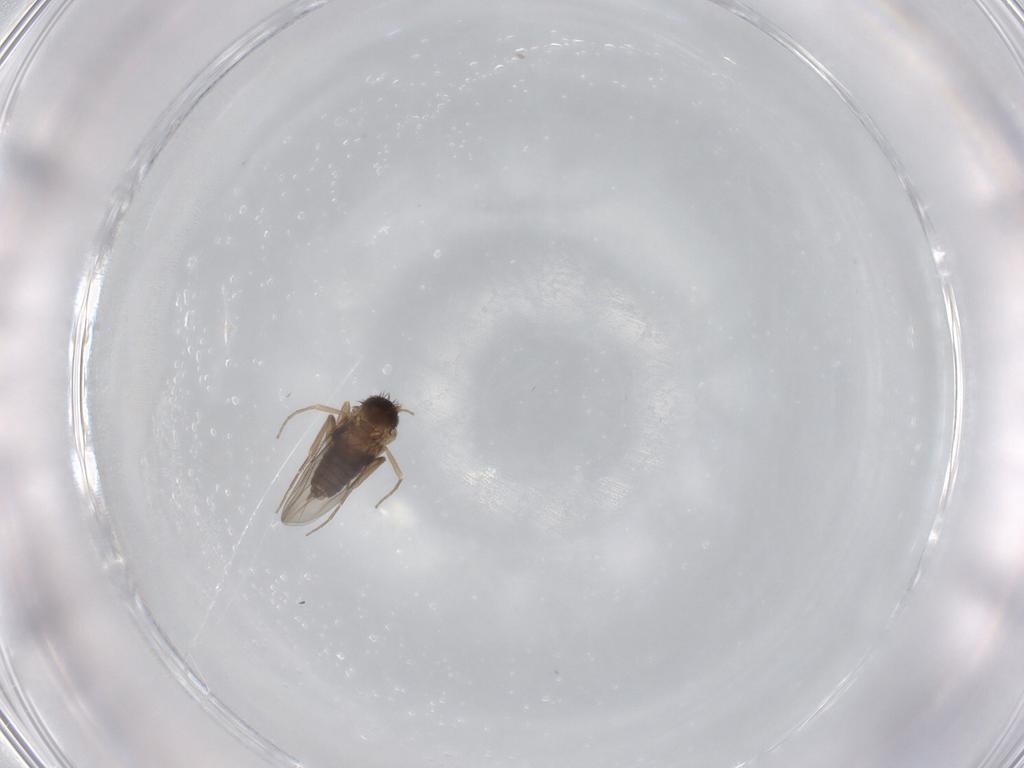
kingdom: Animalia
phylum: Arthropoda
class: Insecta
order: Diptera
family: Phoridae
